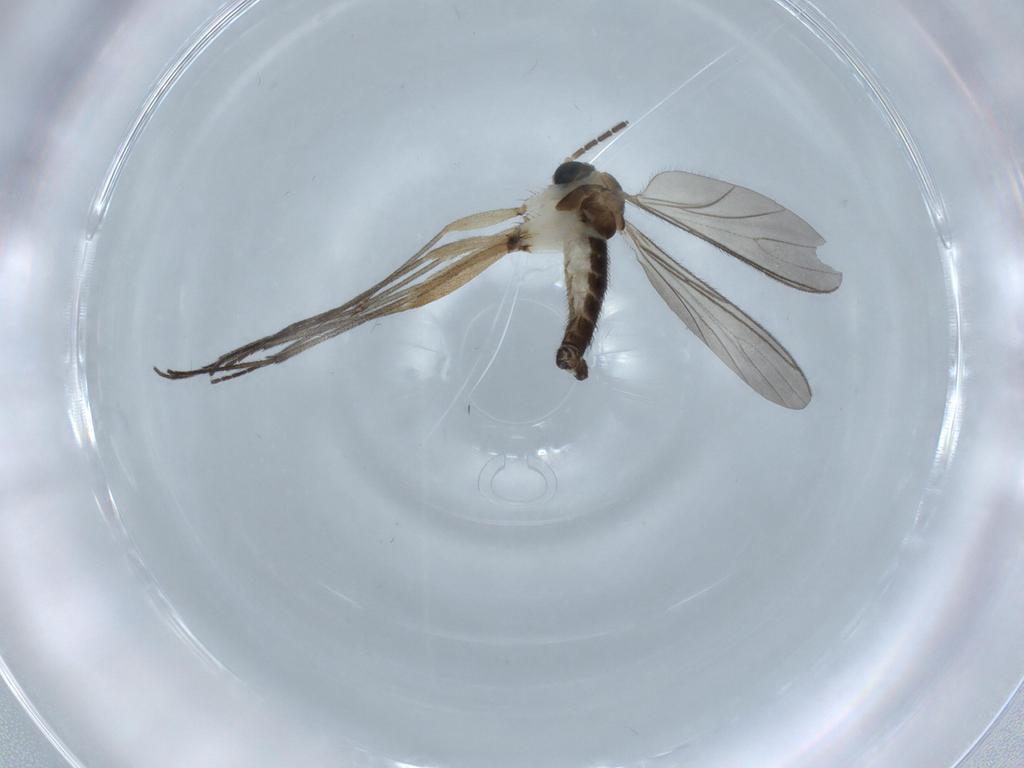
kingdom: Animalia
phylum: Arthropoda
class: Insecta
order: Diptera
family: Sciaridae
